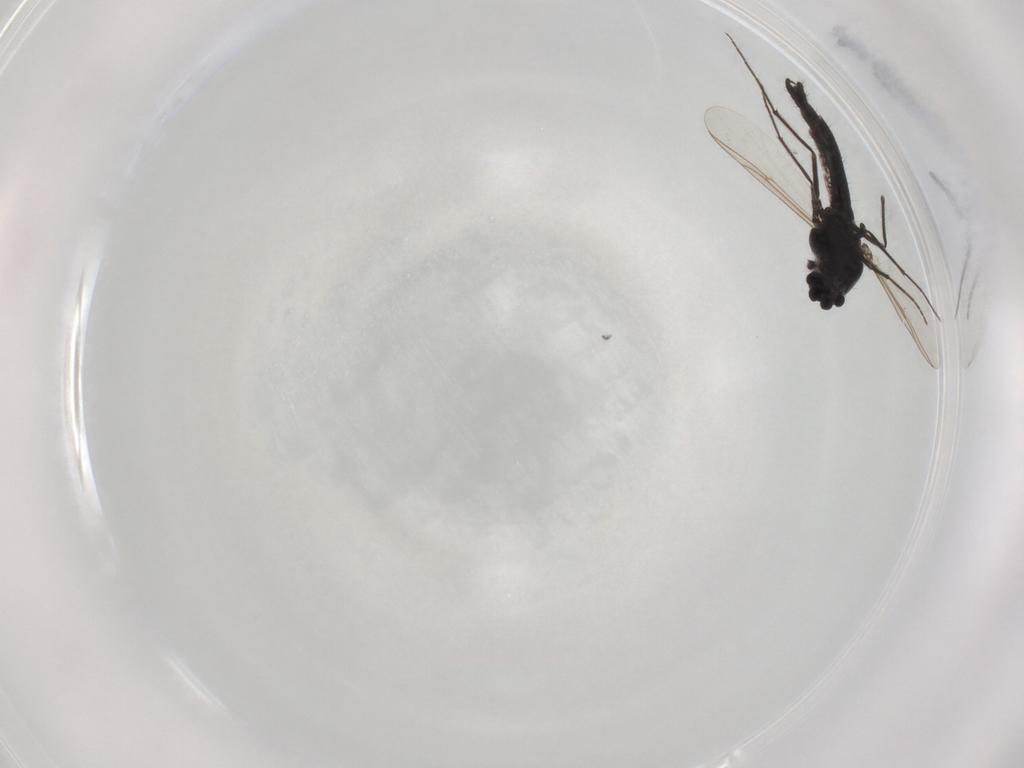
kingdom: Animalia
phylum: Arthropoda
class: Insecta
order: Diptera
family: Chironomidae
